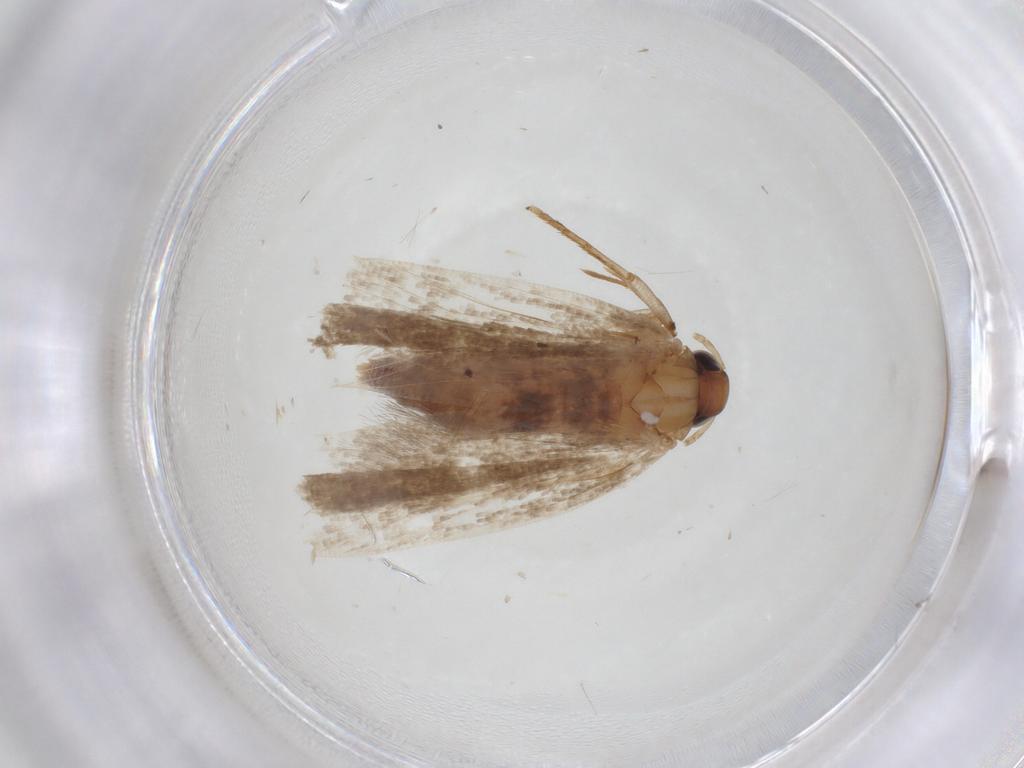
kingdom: Animalia
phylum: Arthropoda
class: Insecta
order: Lepidoptera
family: Gelechiidae
